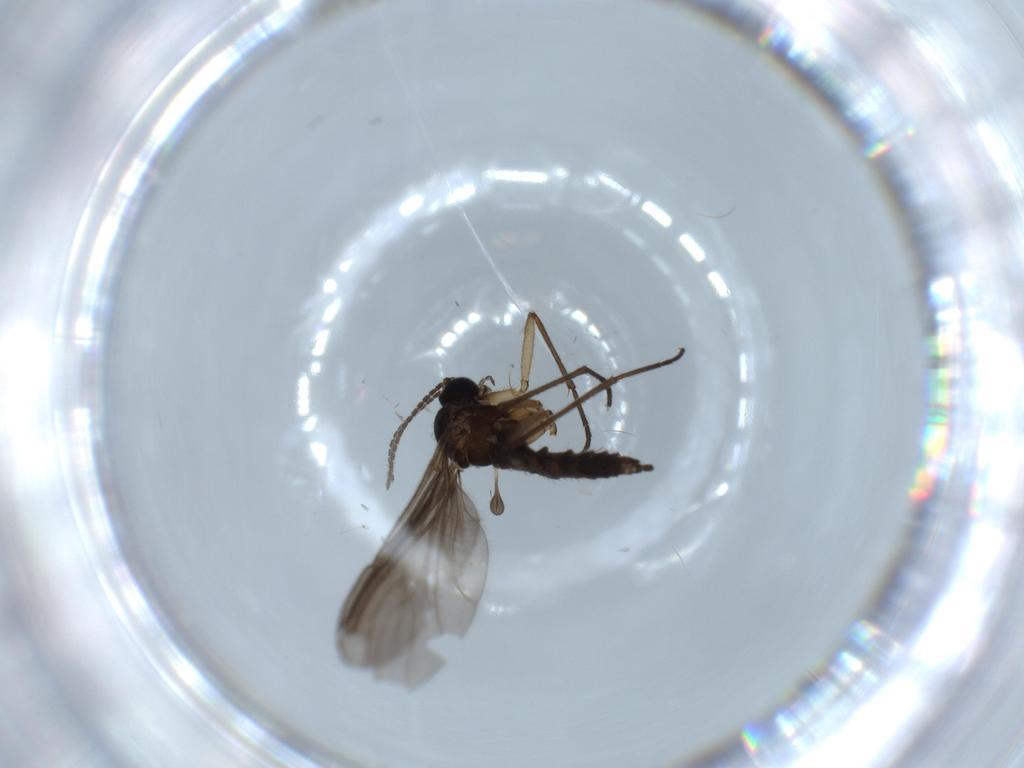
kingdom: Animalia
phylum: Arthropoda
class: Insecta
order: Diptera
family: Sciaridae
